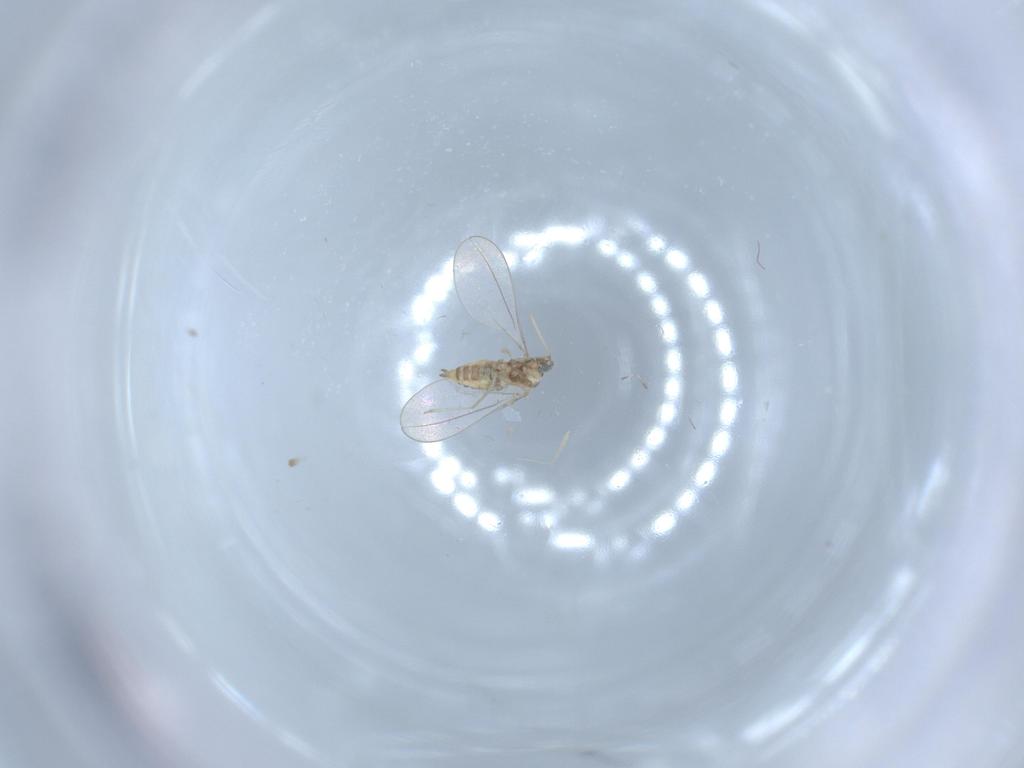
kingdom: Animalia
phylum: Arthropoda
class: Insecta
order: Diptera
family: Cecidomyiidae
